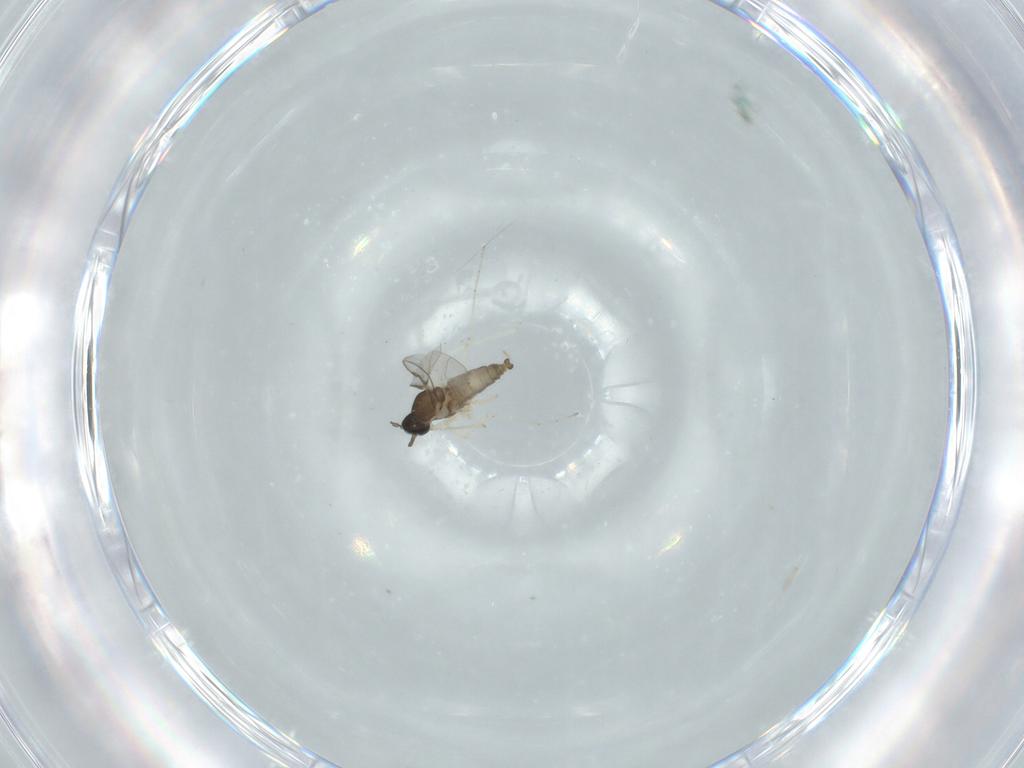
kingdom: Animalia
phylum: Arthropoda
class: Insecta
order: Diptera
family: Cecidomyiidae
